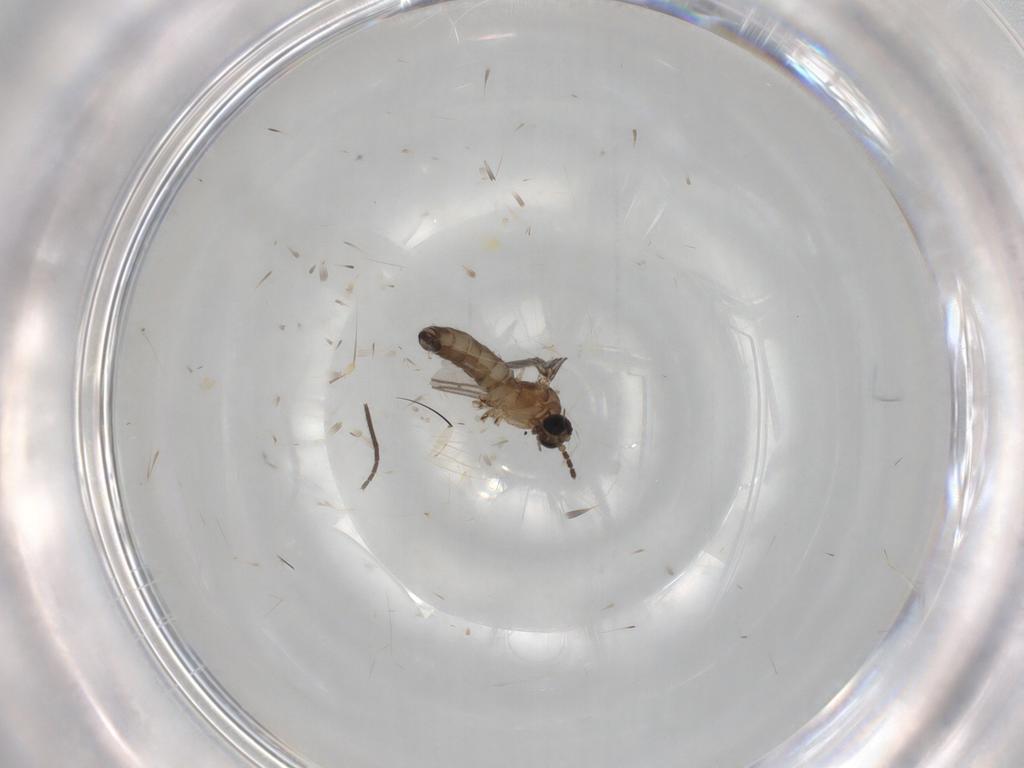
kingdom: Animalia
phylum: Arthropoda
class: Insecta
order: Diptera
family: Sciaridae
